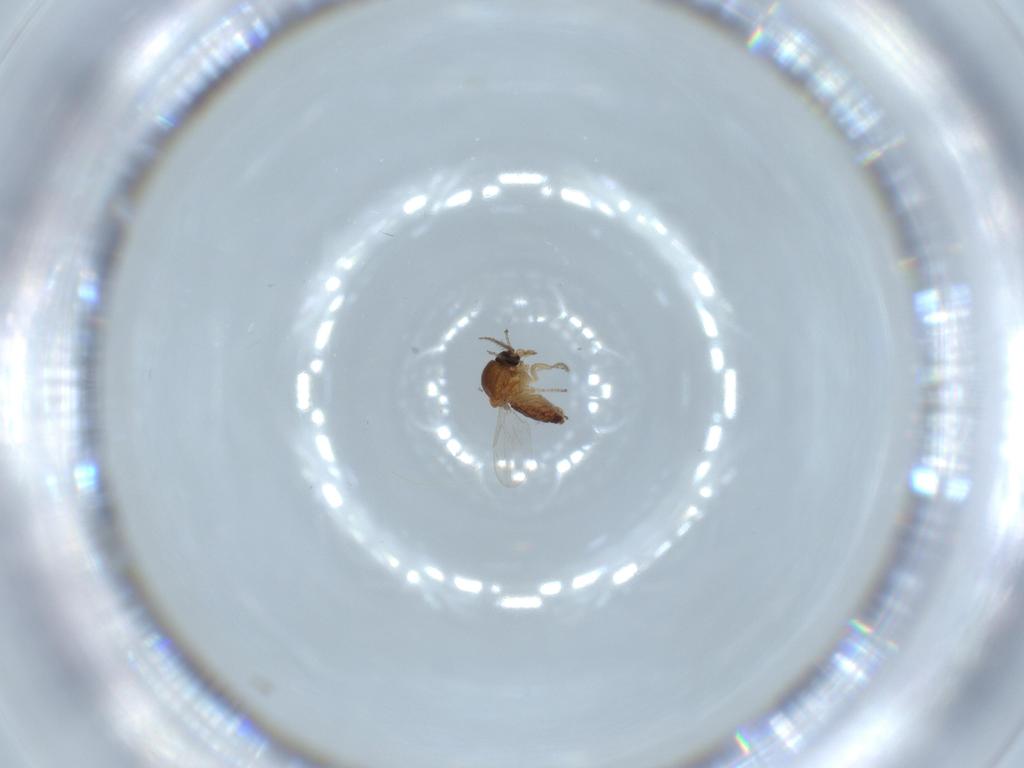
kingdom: Animalia
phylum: Arthropoda
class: Insecta
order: Diptera
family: Ceratopogonidae
